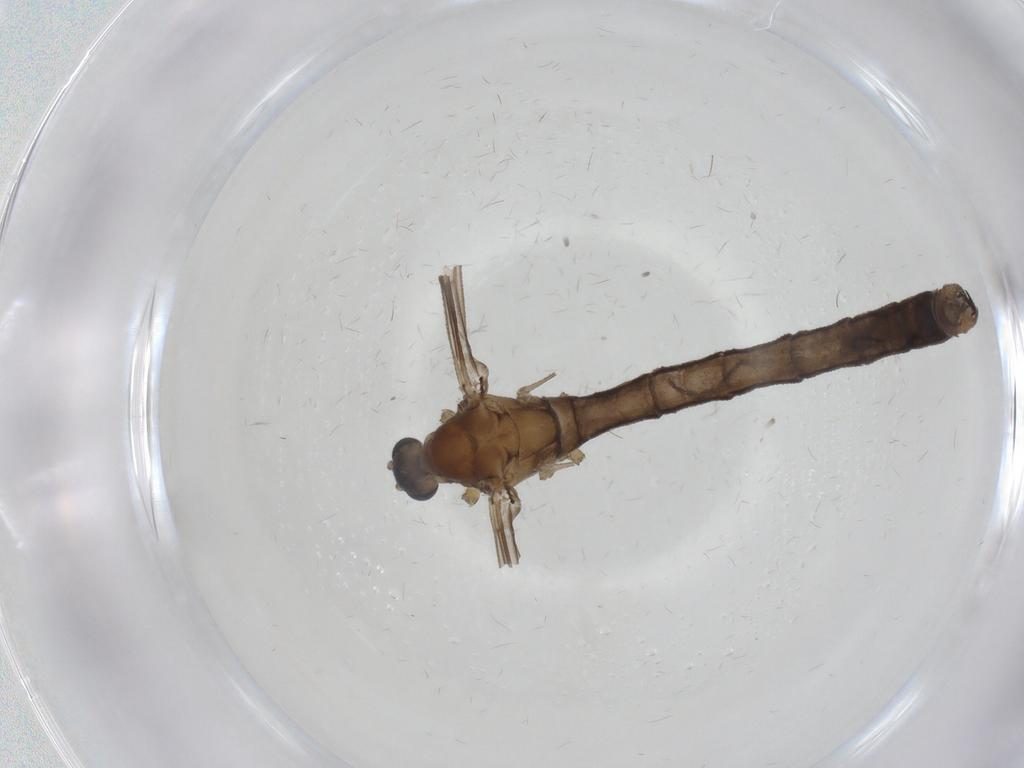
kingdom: Animalia
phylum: Arthropoda
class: Insecta
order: Diptera
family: Limoniidae
